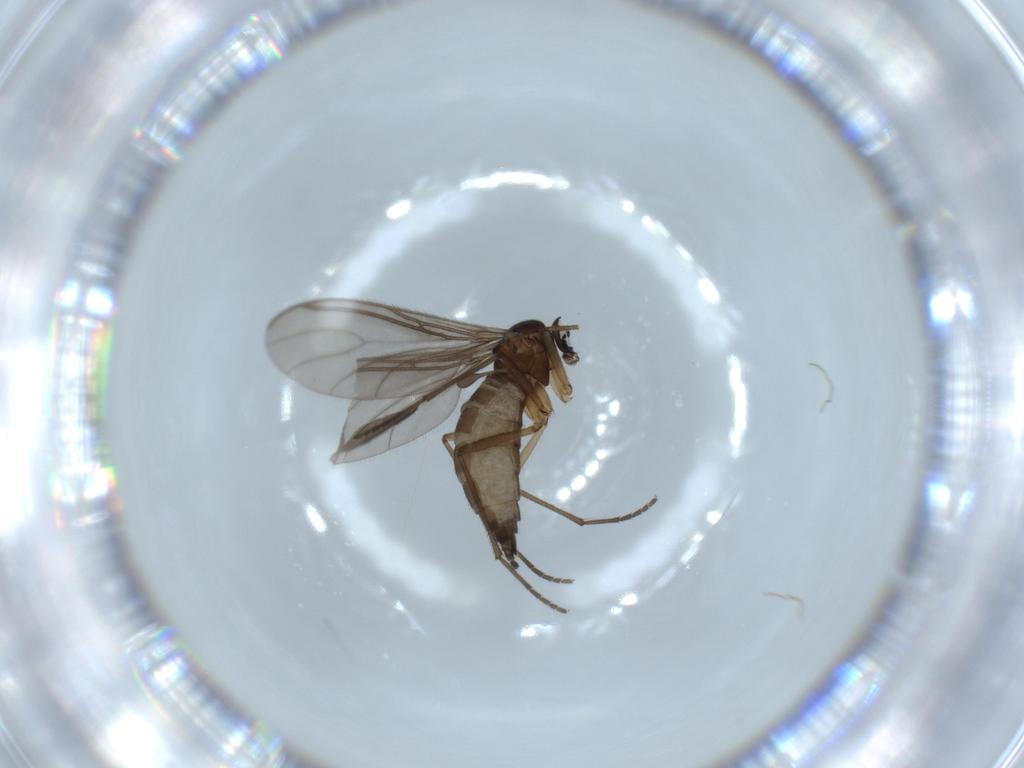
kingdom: Animalia
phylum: Arthropoda
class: Insecta
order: Diptera
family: Sciaridae
